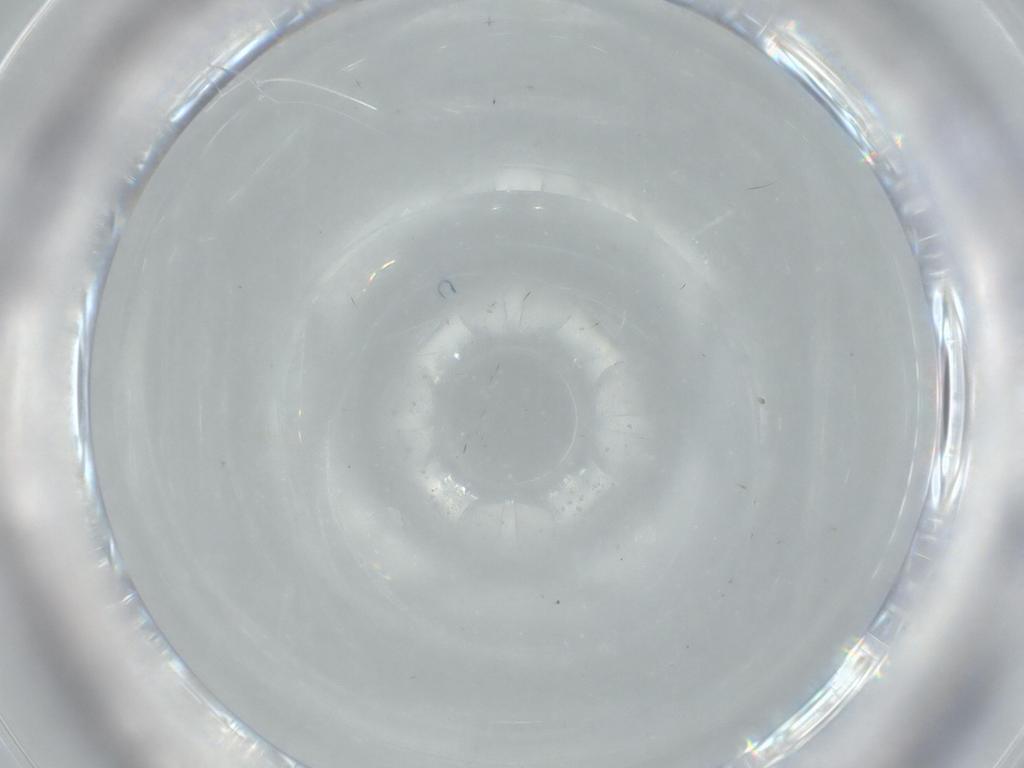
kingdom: Animalia
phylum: Arthropoda
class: Insecta
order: Diptera
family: Cecidomyiidae
